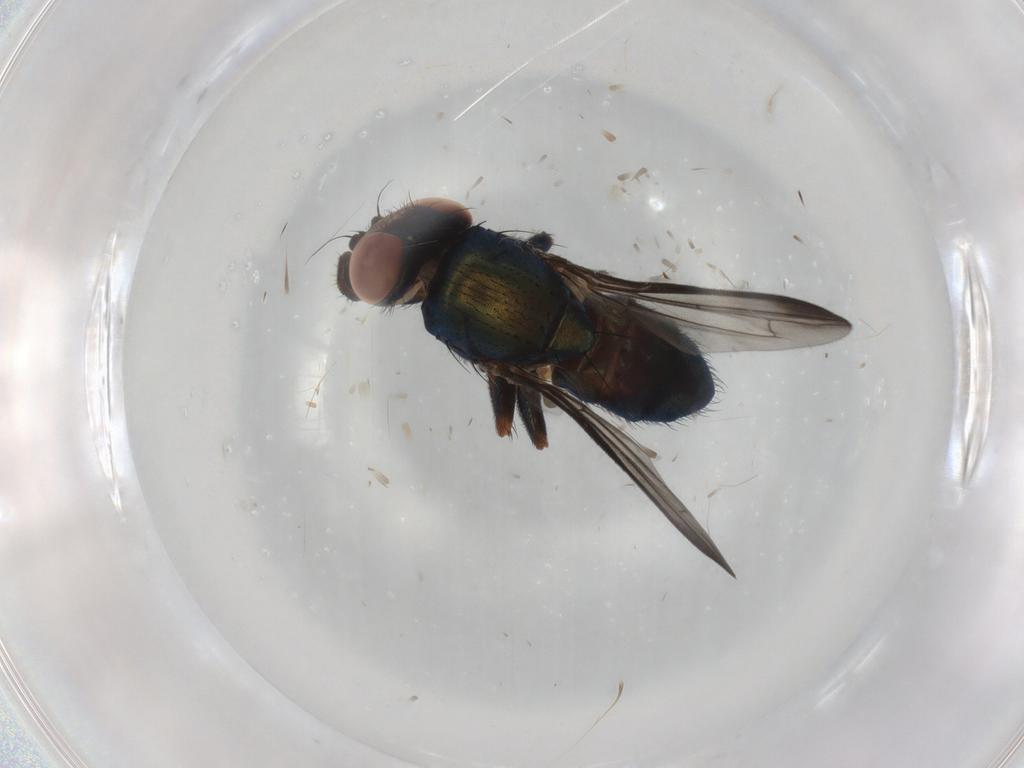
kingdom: Animalia
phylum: Arthropoda
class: Insecta
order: Diptera
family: Ulidiidae
